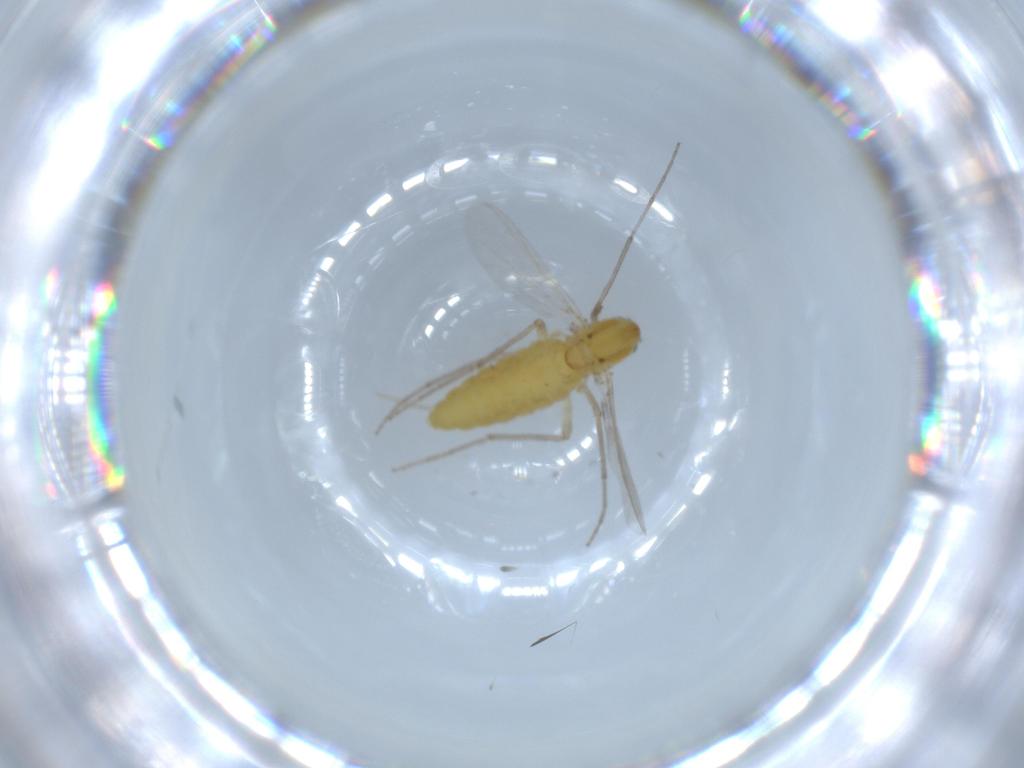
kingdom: Animalia
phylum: Arthropoda
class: Insecta
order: Diptera
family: Chironomidae
